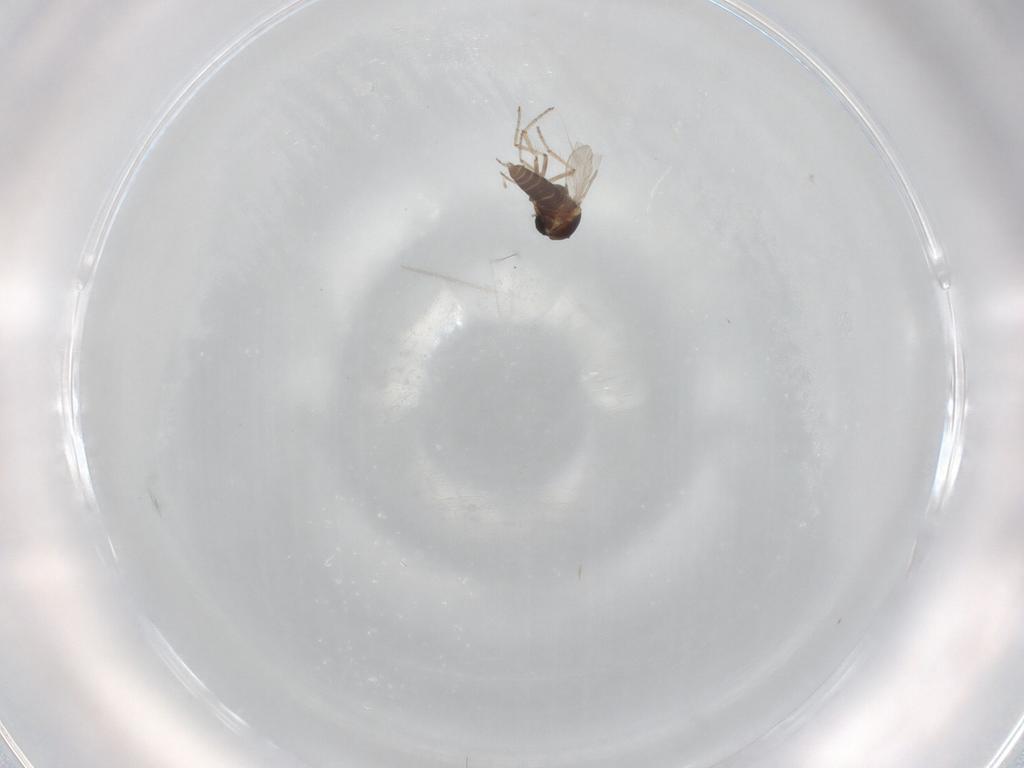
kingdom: Animalia
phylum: Arthropoda
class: Insecta
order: Diptera
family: Ceratopogonidae
